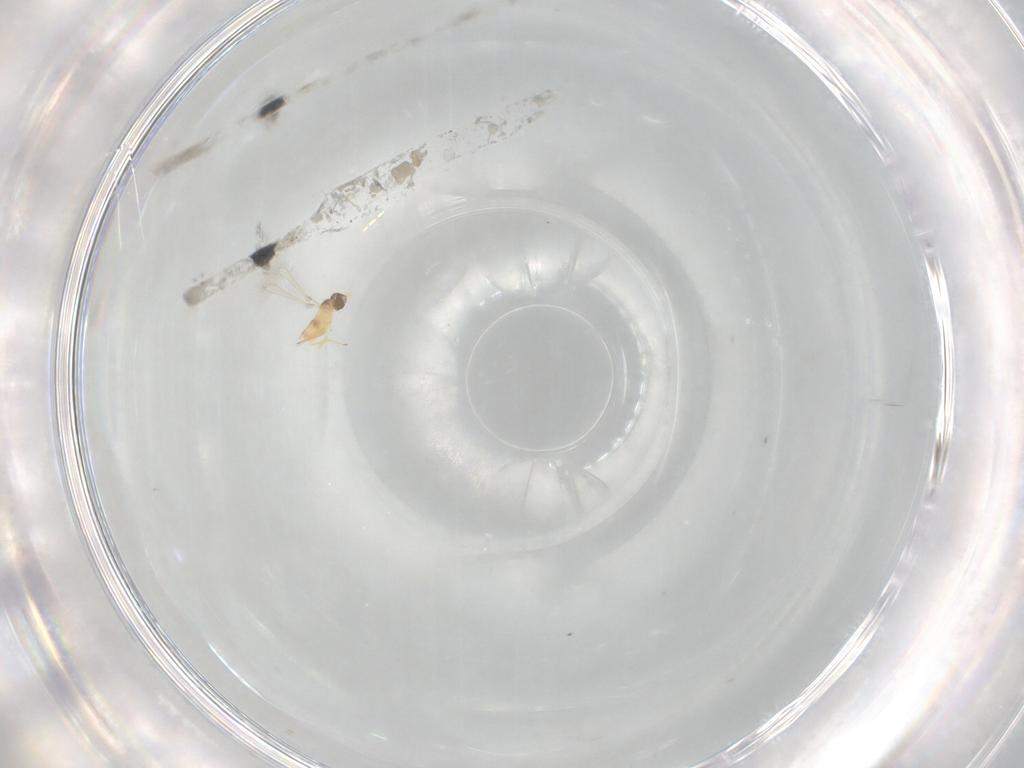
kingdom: Animalia
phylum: Arthropoda
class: Insecta
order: Hymenoptera
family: Mymaridae
